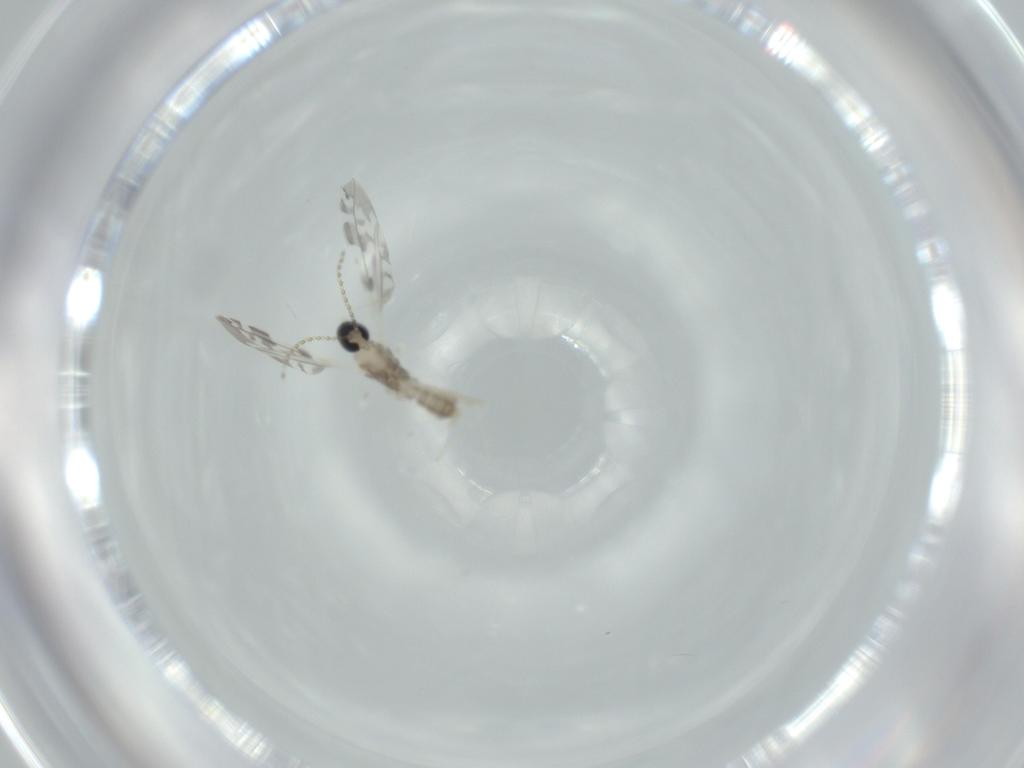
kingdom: Animalia
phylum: Arthropoda
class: Insecta
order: Diptera
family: Cecidomyiidae
